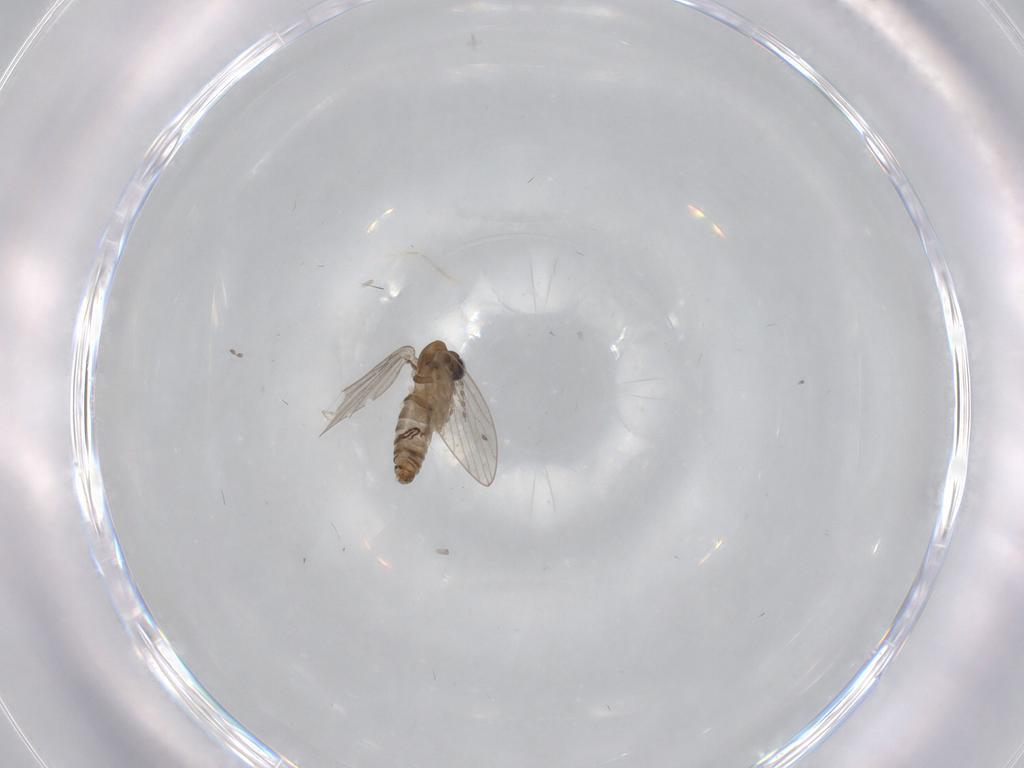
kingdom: Animalia
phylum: Arthropoda
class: Insecta
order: Diptera
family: Psychodidae
